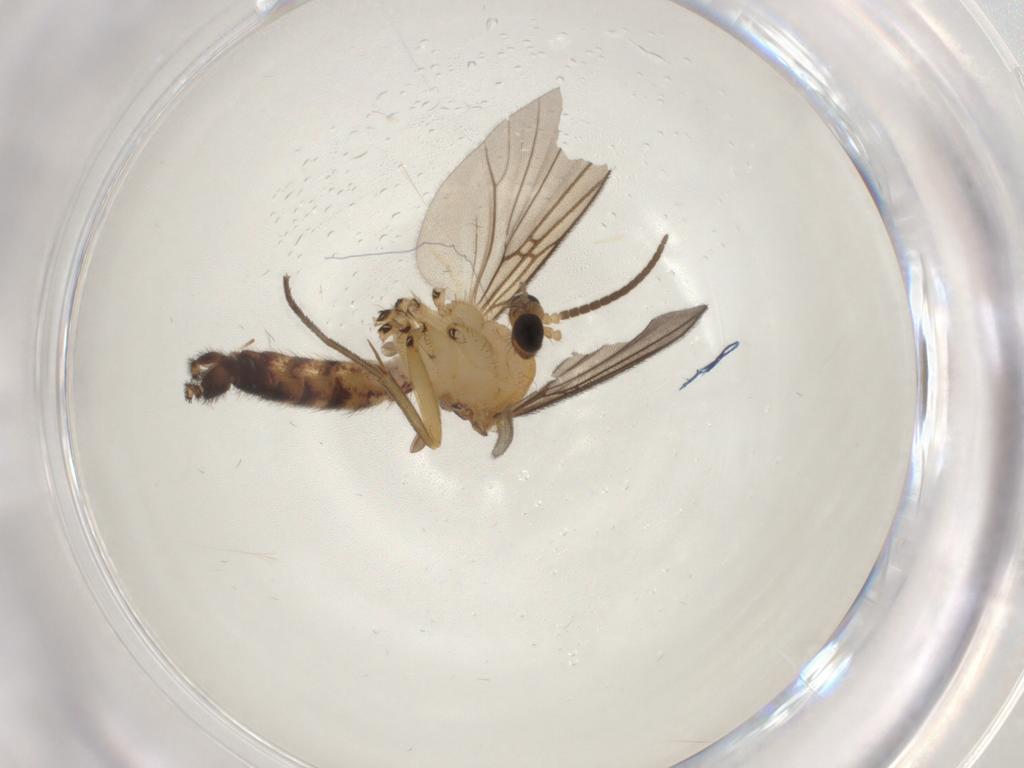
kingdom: Animalia
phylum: Arthropoda
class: Insecta
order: Diptera
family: Mycetophilidae
